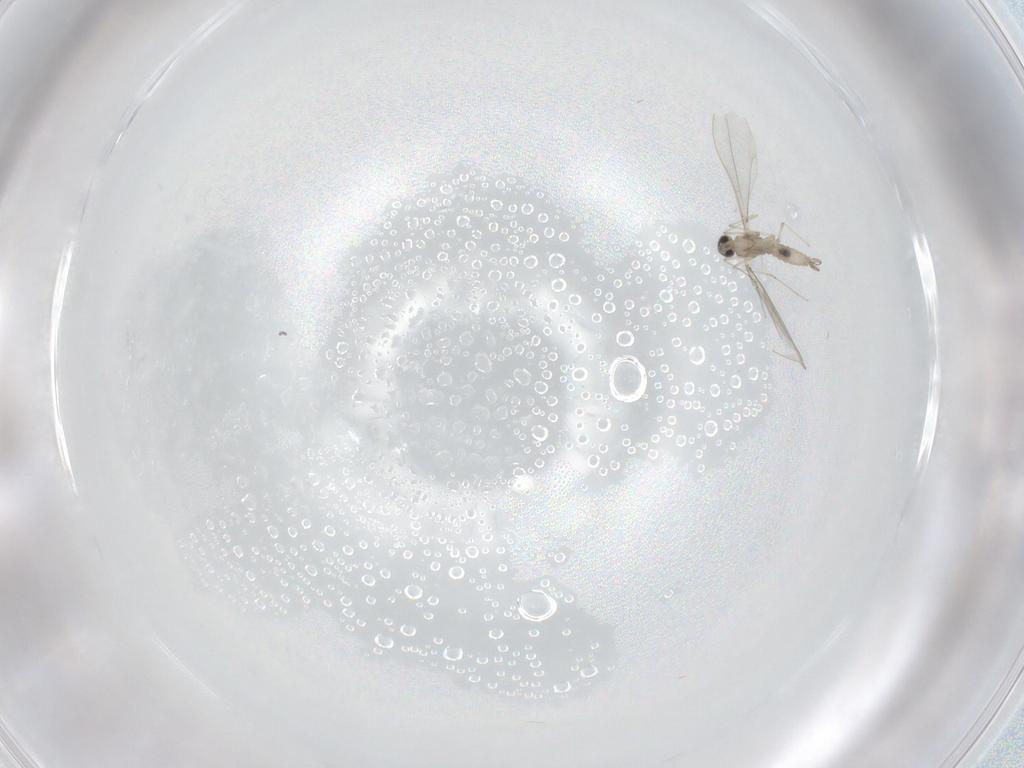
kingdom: Animalia
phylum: Arthropoda
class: Insecta
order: Diptera
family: Cecidomyiidae
